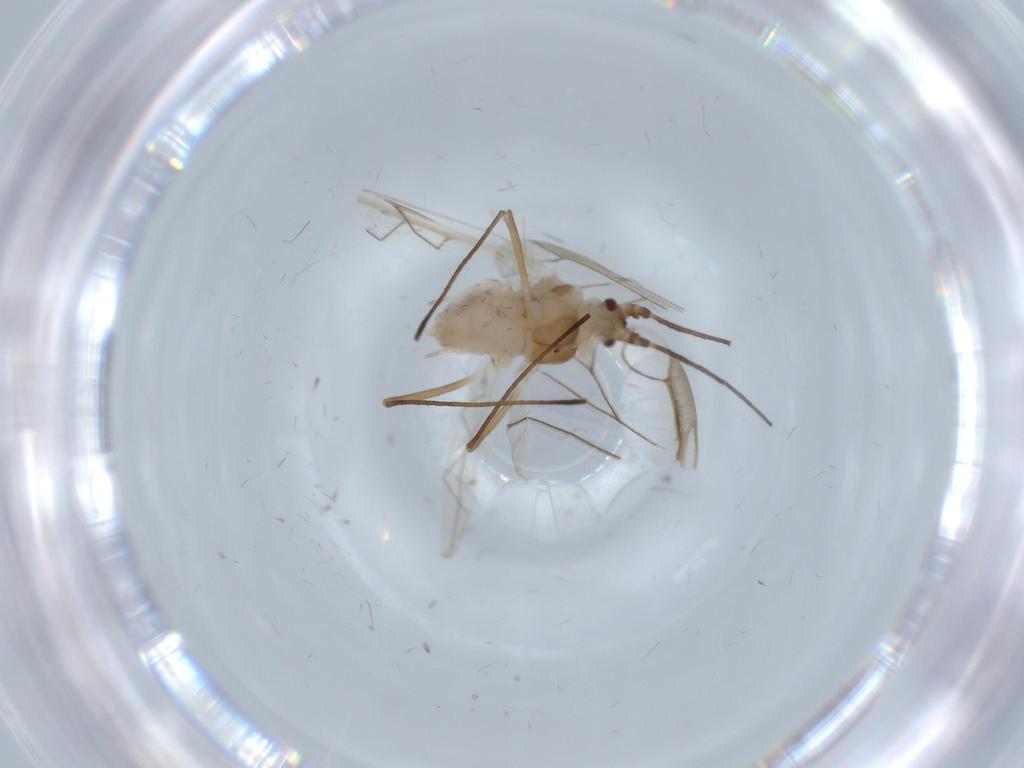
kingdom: Animalia
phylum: Arthropoda
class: Insecta
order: Hemiptera
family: Aphididae
